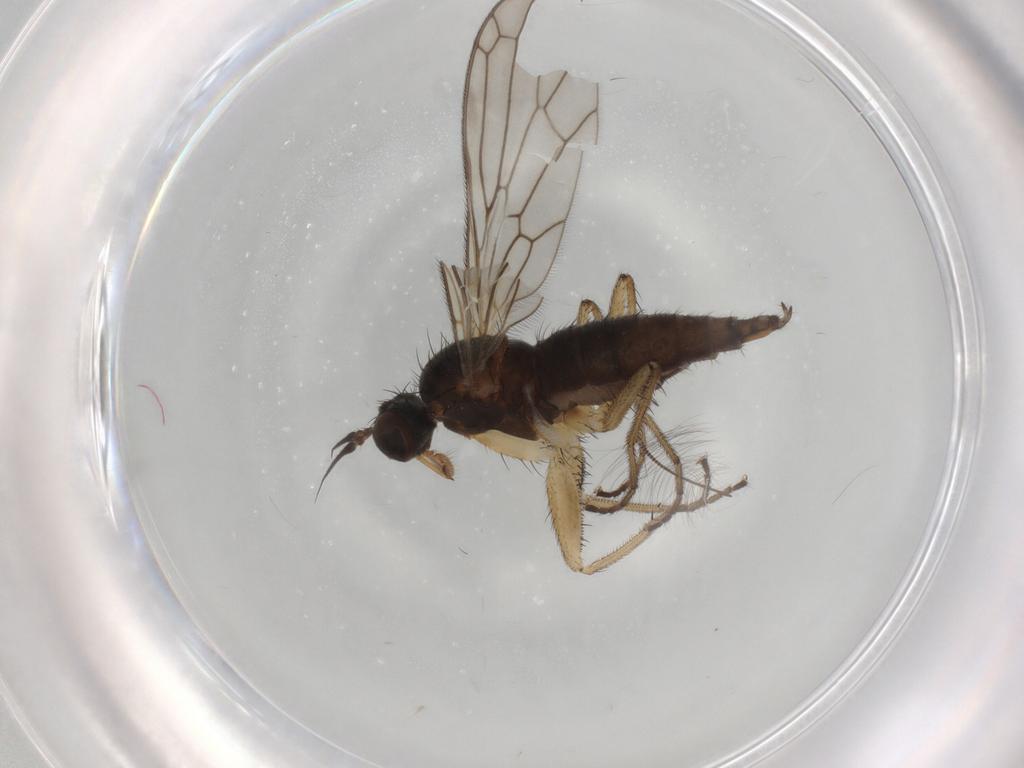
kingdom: Animalia
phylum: Arthropoda
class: Insecta
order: Diptera
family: Empididae
